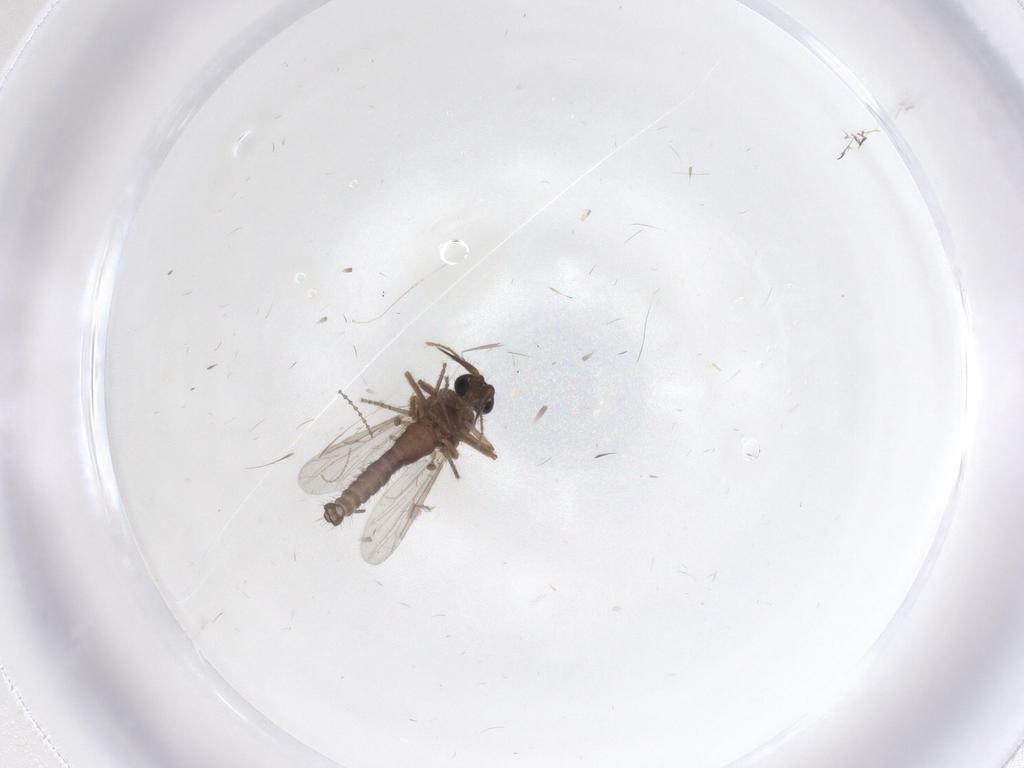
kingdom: Animalia
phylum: Arthropoda
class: Insecta
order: Diptera
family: Ceratopogonidae
